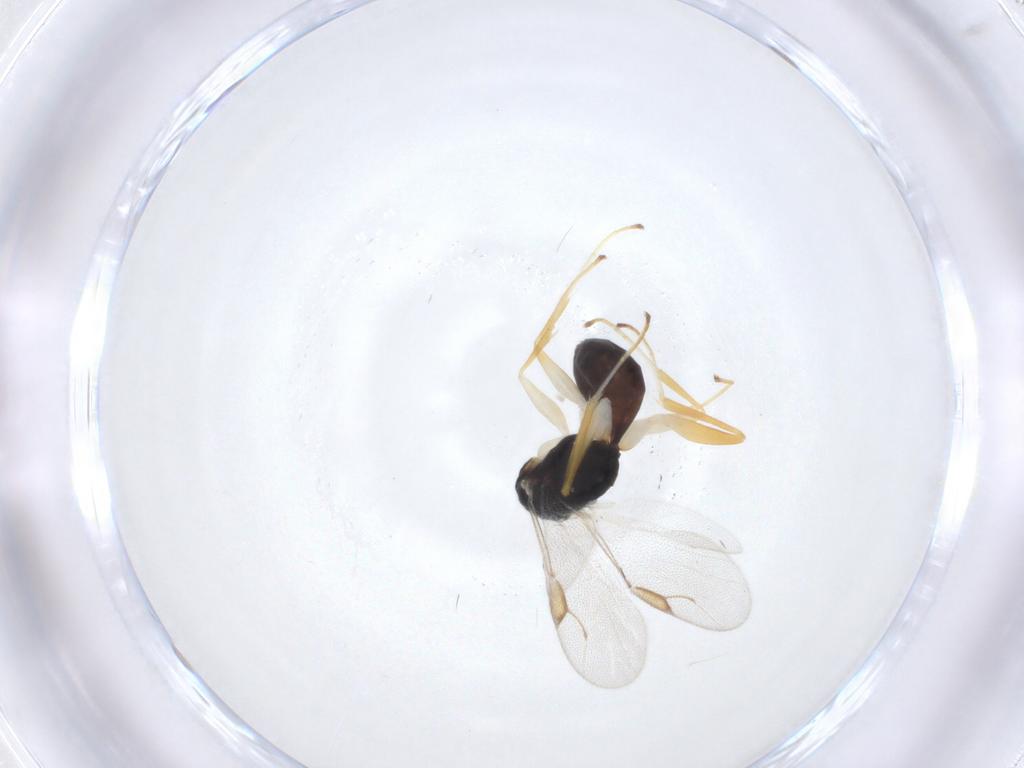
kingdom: Animalia
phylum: Arthropoda
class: Insecta
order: Hymenoptera
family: Dryinidae
